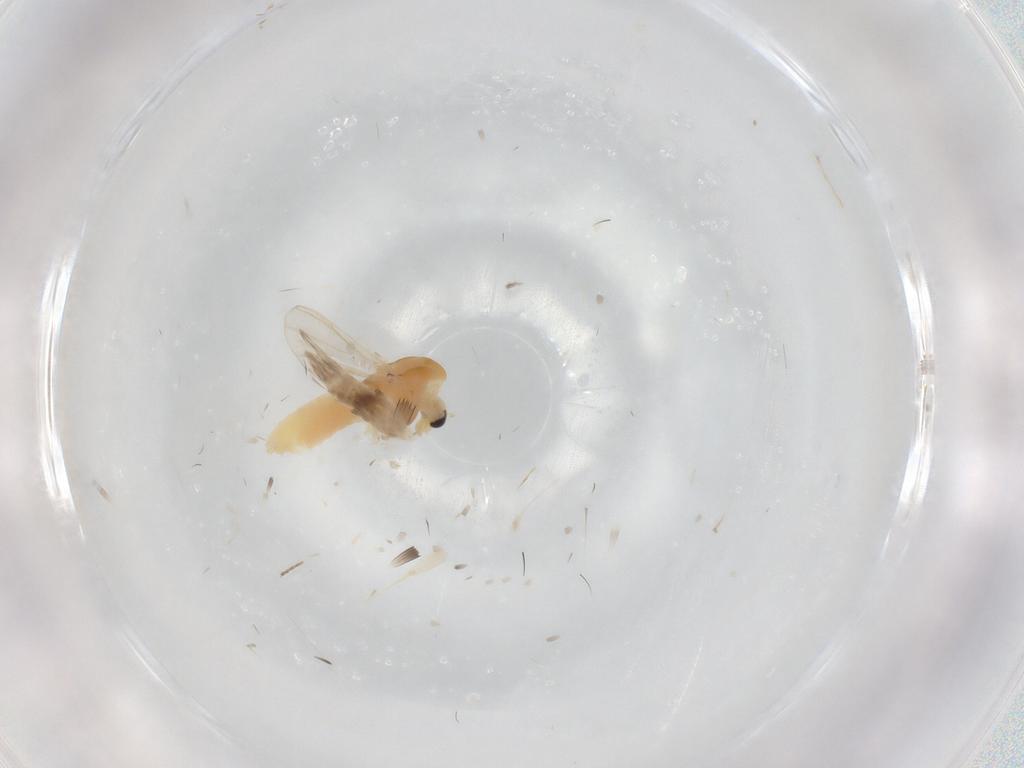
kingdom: Animalia
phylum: Arthropoda
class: Insecta
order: Diptera
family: Chironomidae
